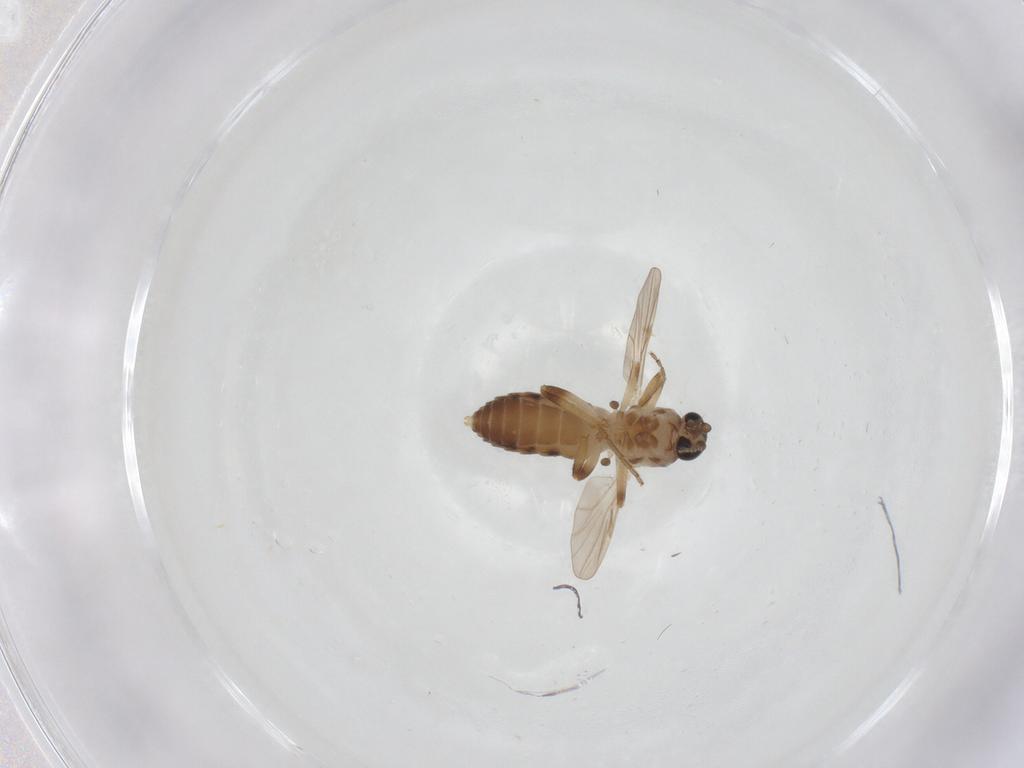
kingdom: Animalia
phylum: Arthropoda
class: Insecta
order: Diptera
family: Ceratopogonidae
